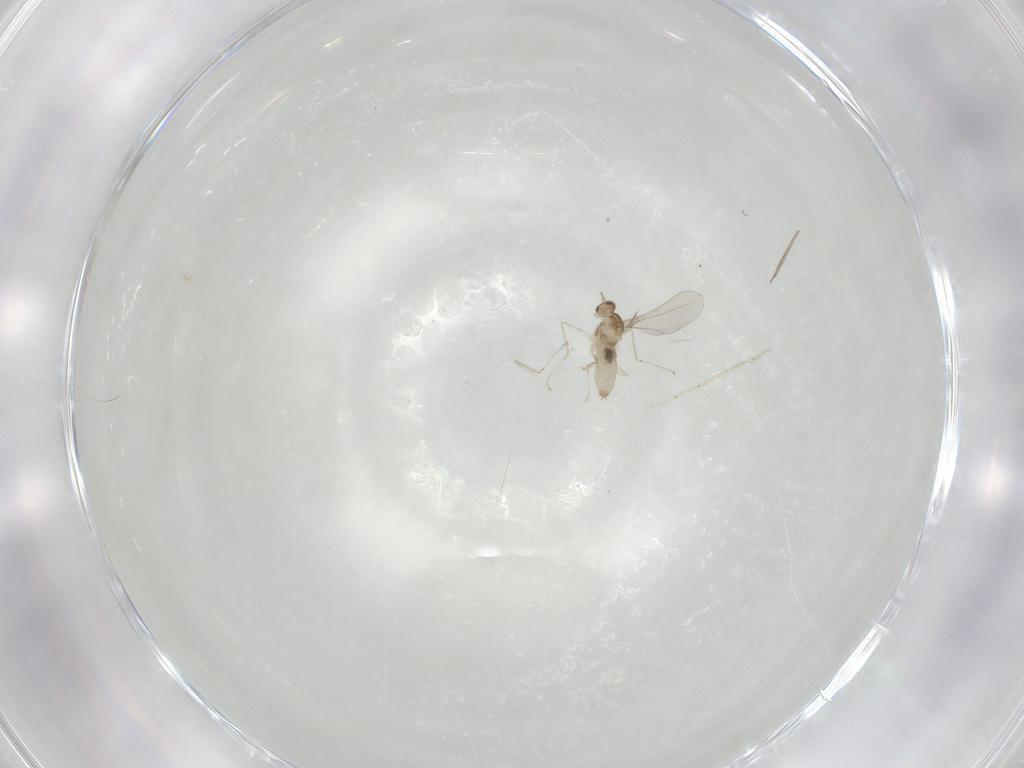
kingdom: Animalia
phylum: Arthropoda
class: Insecta
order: Diptera
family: Cecidomyiidae
